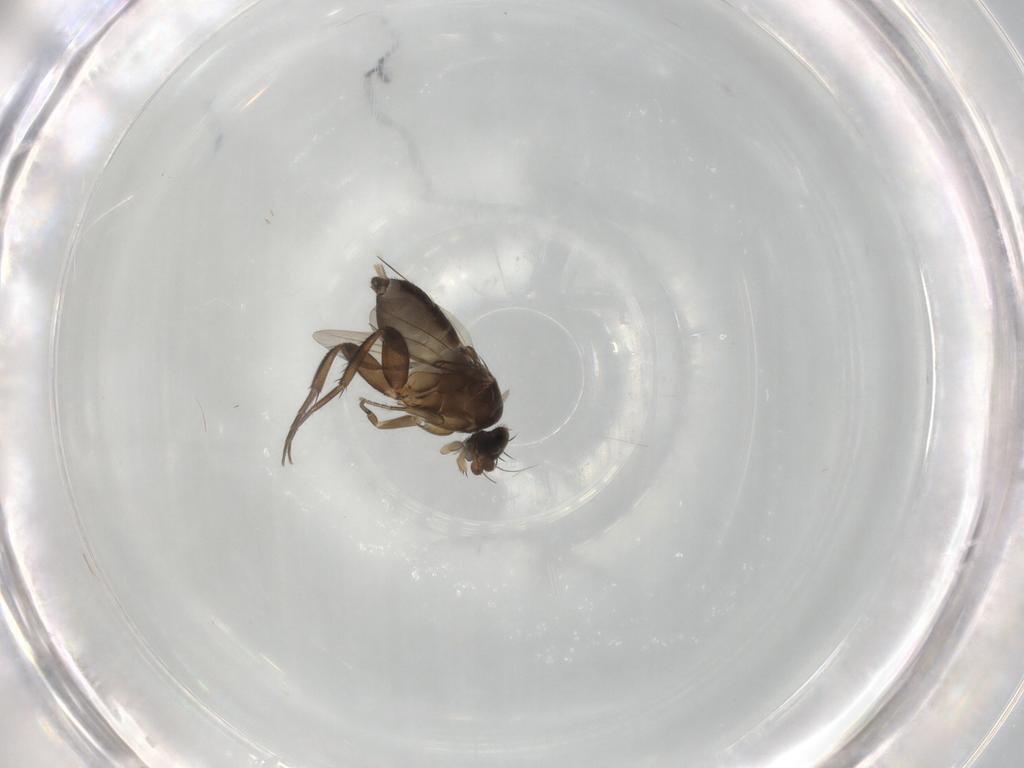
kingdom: Animalia
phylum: Arthropoda
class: Insecta
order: Diptera
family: Phoridae
